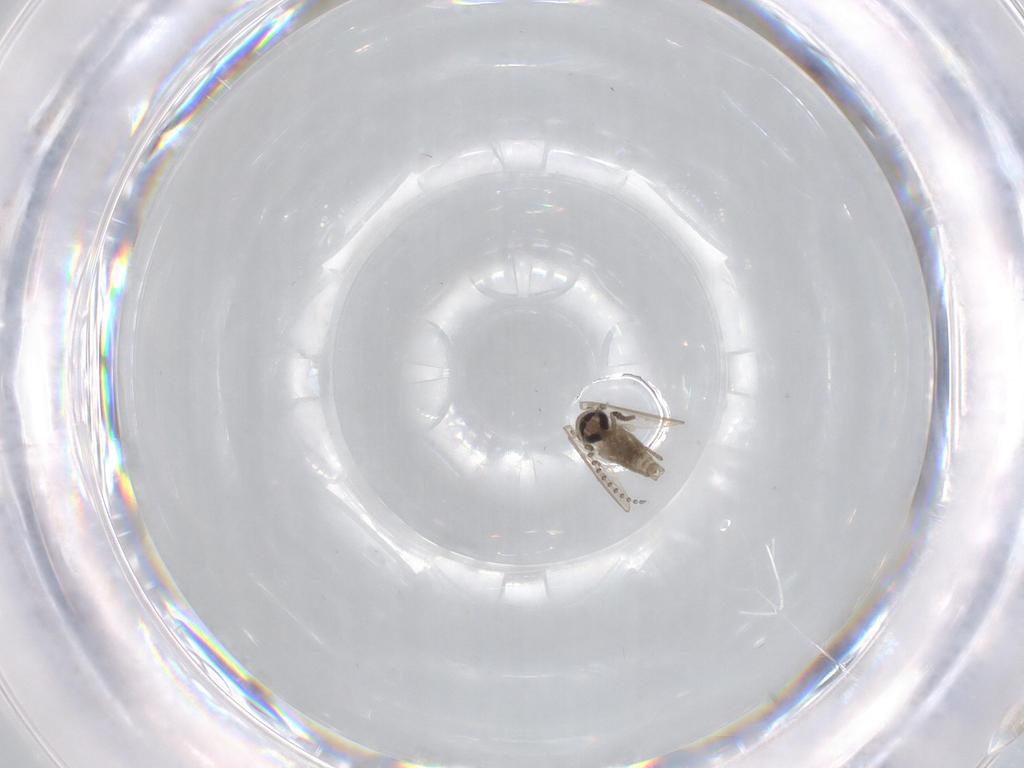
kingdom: Animalia
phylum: Arthropoda
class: Insecta
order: Diptera
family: Psychodidae
